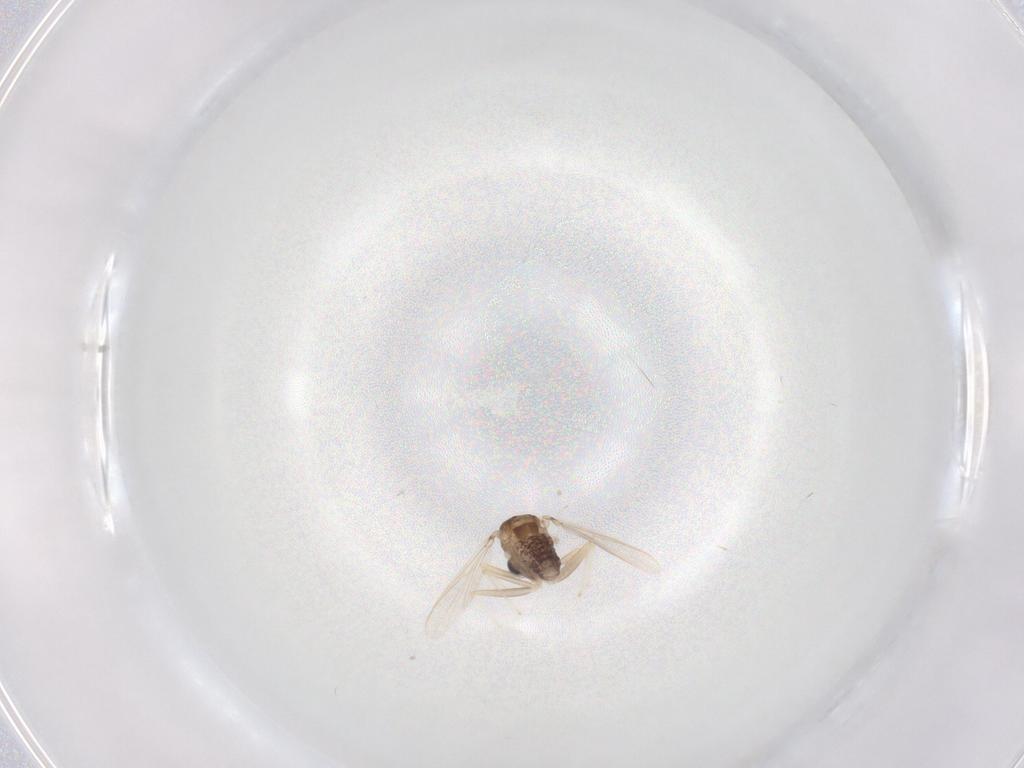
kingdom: Animalia
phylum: Arthropoda
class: Insecta
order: Diptera
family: Chironomidae
